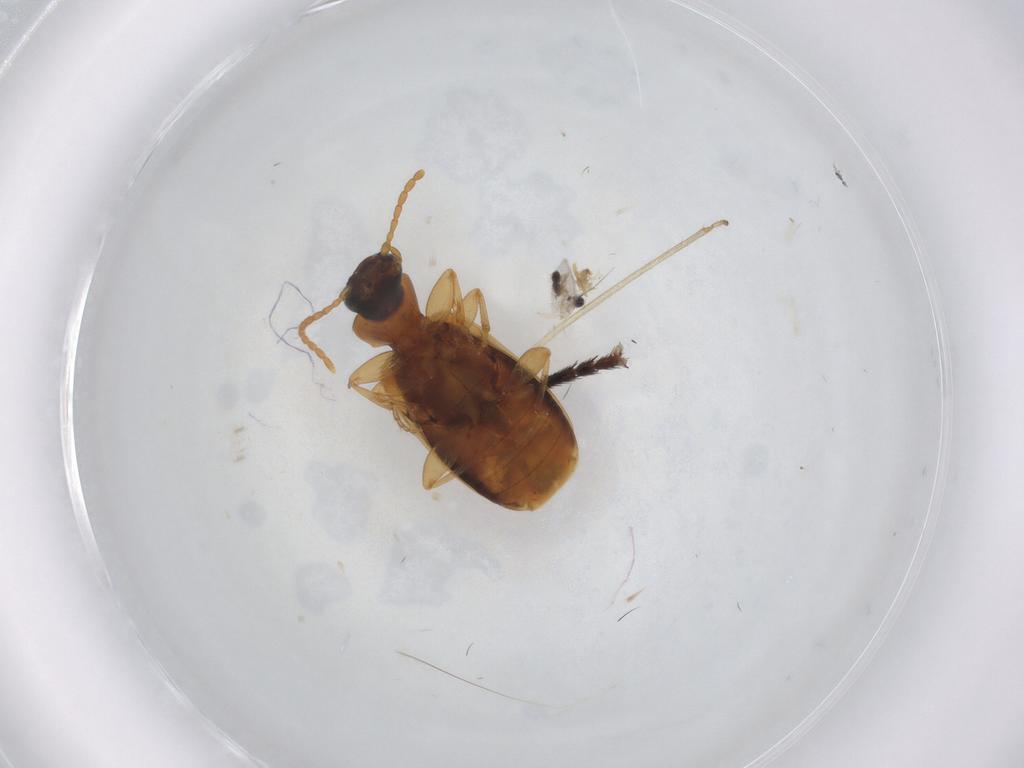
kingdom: Animalia
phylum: Arthropoda
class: Insecta
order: Coleoptera
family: Carabidae
